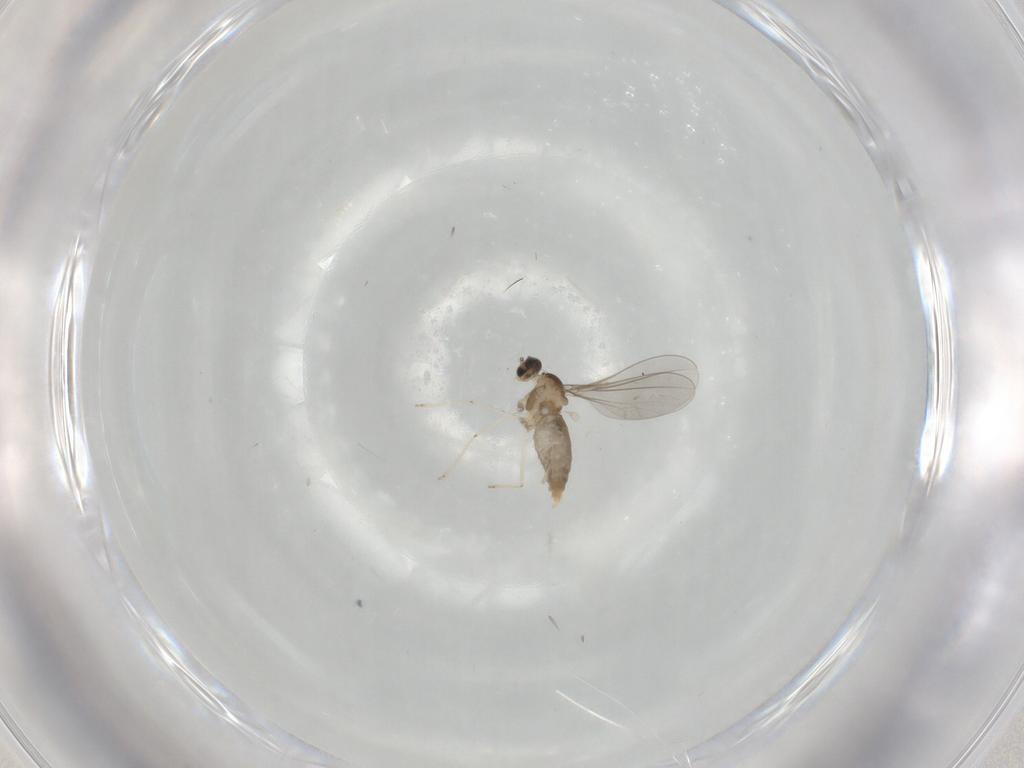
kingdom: Animalia
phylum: Arthropoda
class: Insecta
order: Diptera
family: Cecidomyiidae
